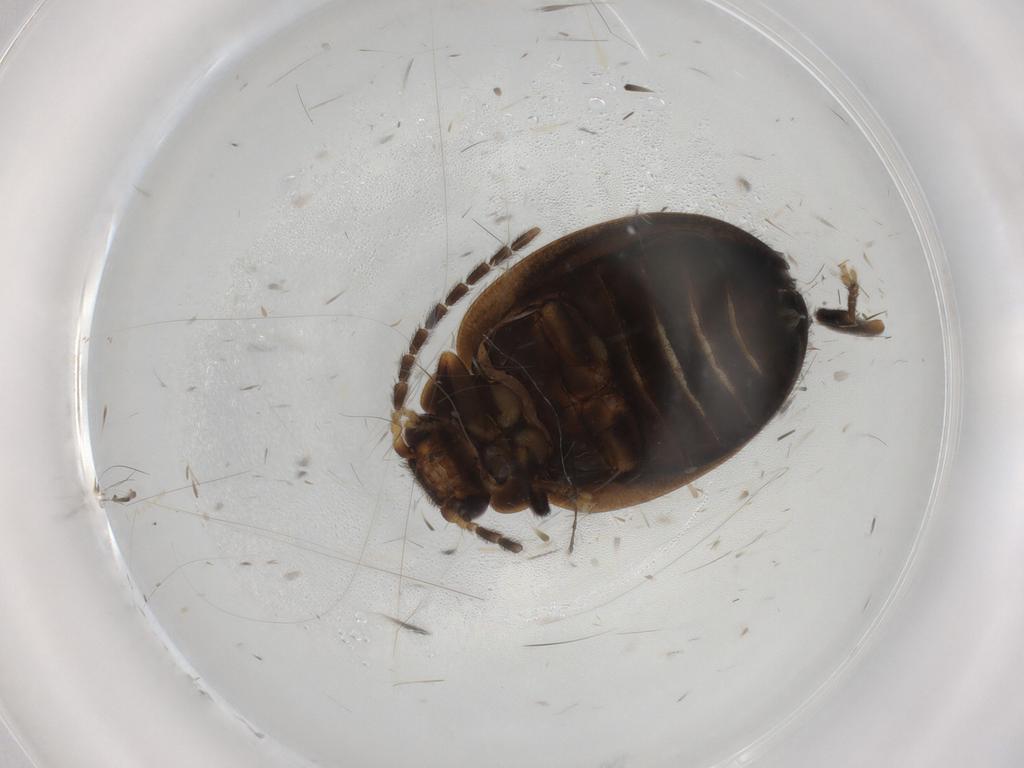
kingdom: Animalia
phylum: Arthropoda
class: Insecta
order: Coleoptera
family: Scirtidae
